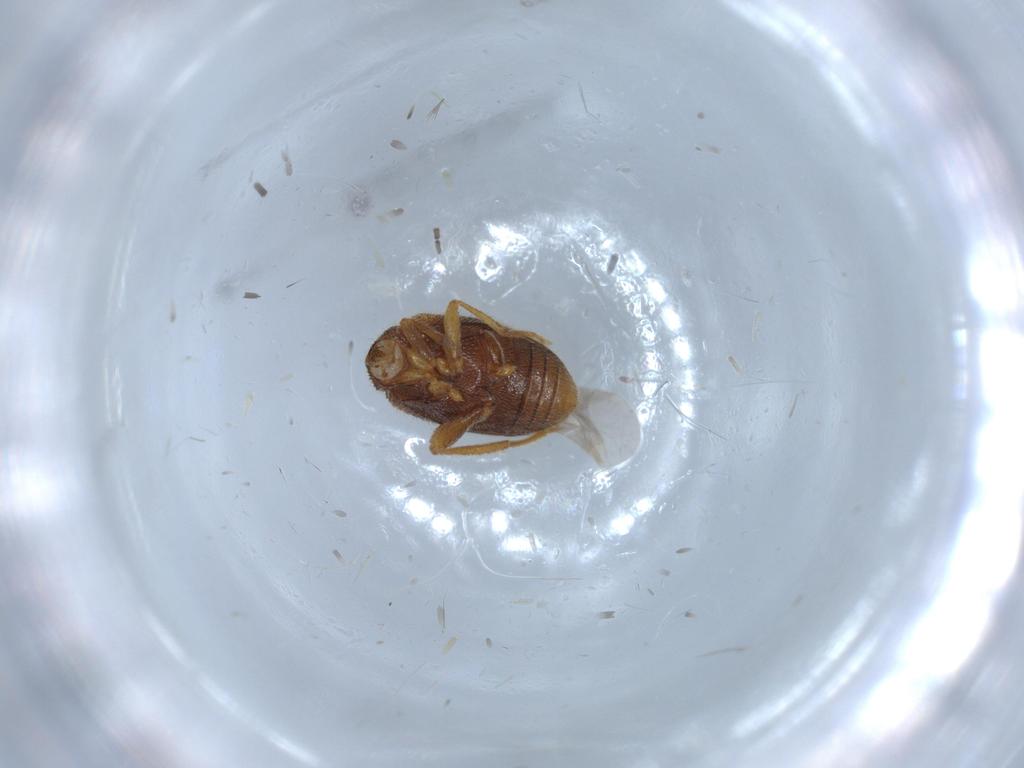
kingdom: Animalia
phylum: Arthropoda
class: Insecta
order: Coleoptera
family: Aderidae
